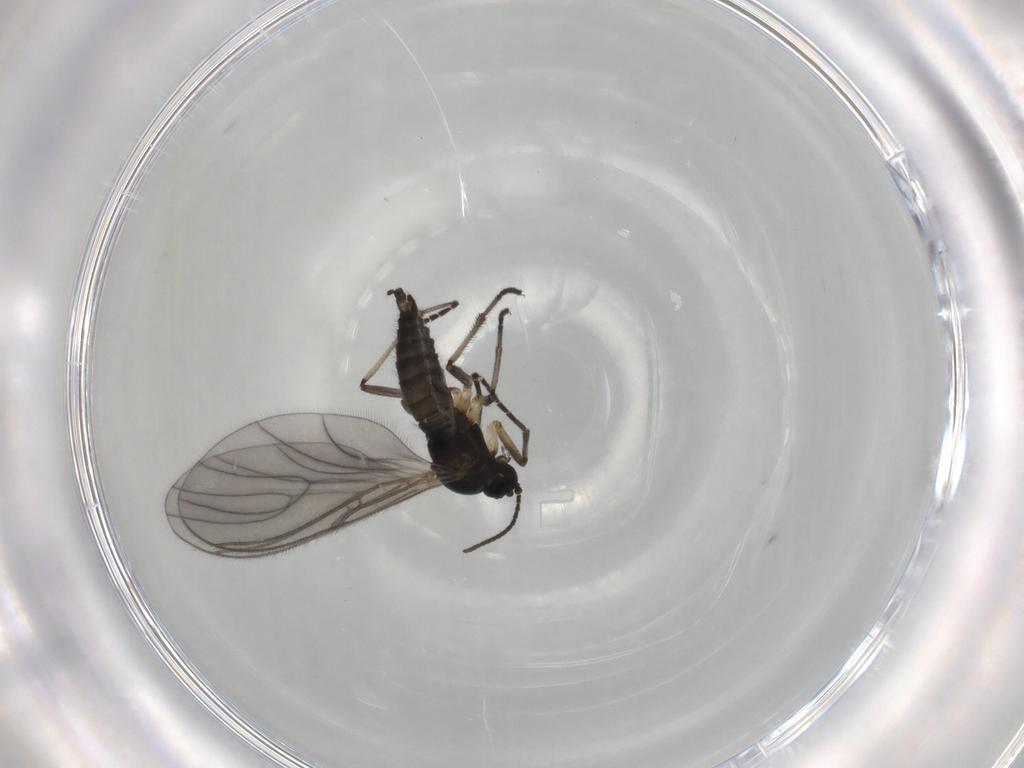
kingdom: Animalia
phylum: Arthropoda
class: Insecta
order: Diptera
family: Sciaridae
